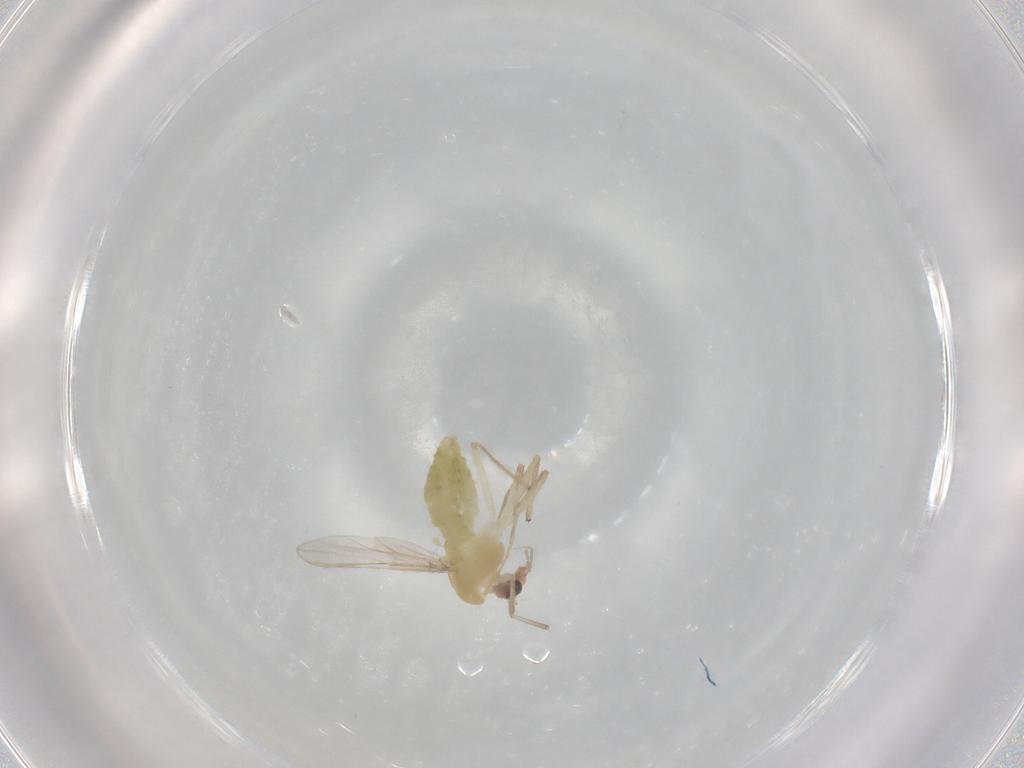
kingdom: Animalia
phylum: Arthropoda
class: Insecta
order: Diptera
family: Chironomidae
